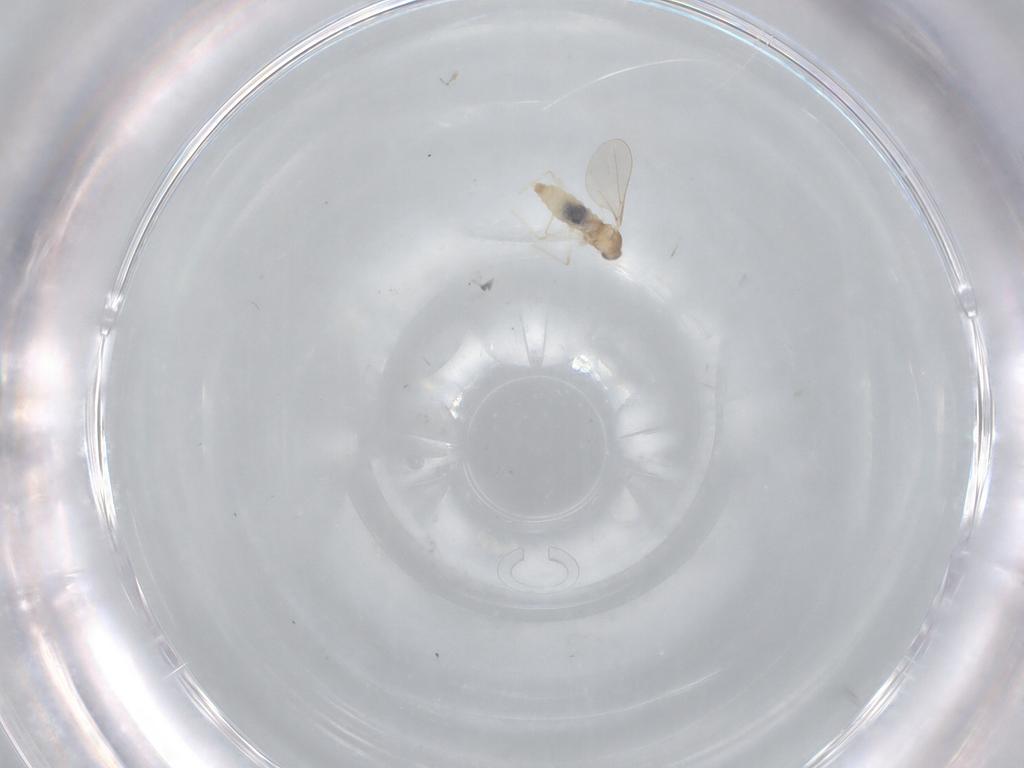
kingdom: Animalia
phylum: Arthropoda
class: Insecta
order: Diptera
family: Cecidomyiidae
